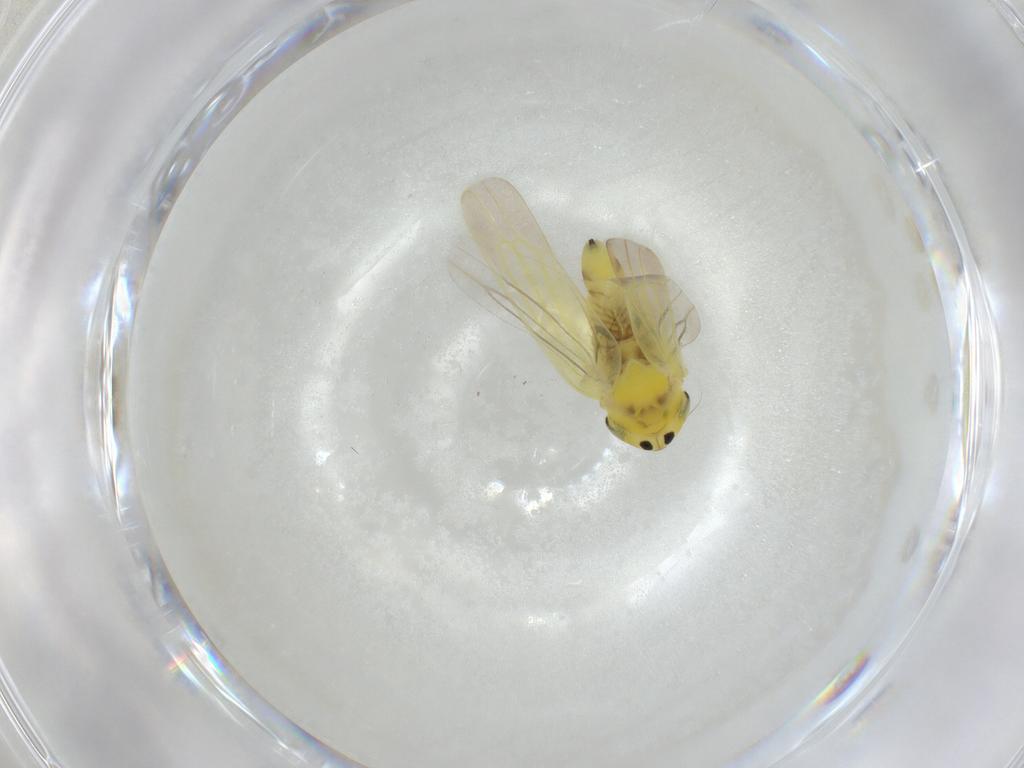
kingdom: Animalia
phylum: Arthropoda
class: Insecta
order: Hemiptera
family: Cicadellidae
